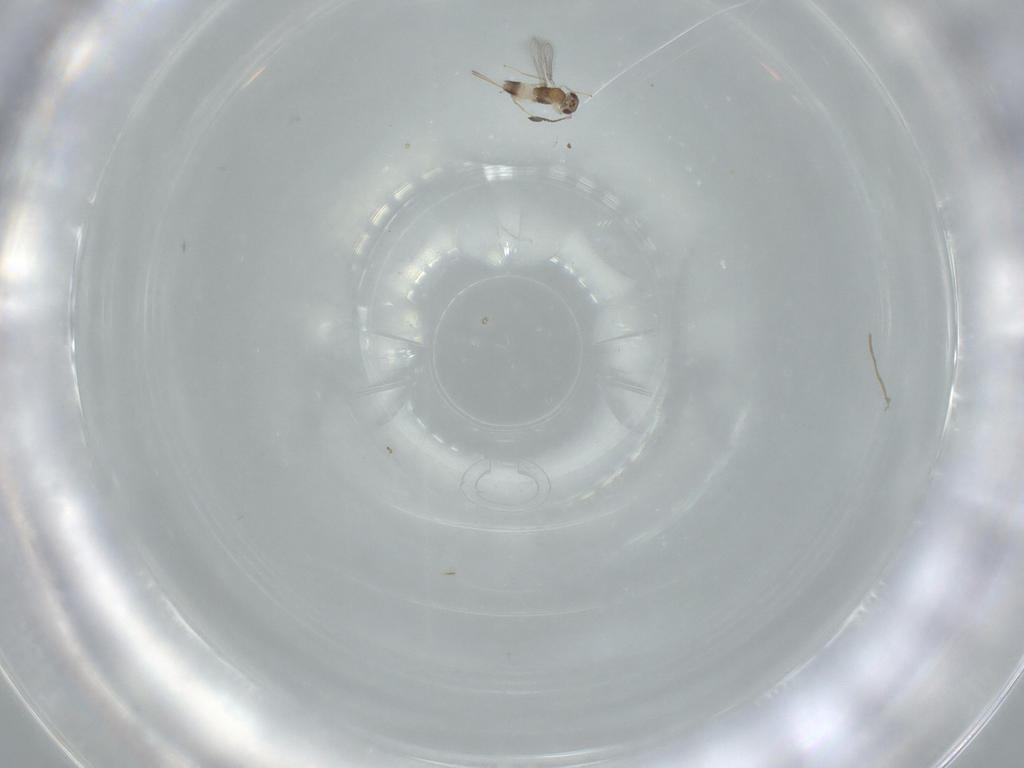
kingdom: Animalia
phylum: Arthropoda
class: Insecta
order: Hymenoptera
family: Mymaridae
